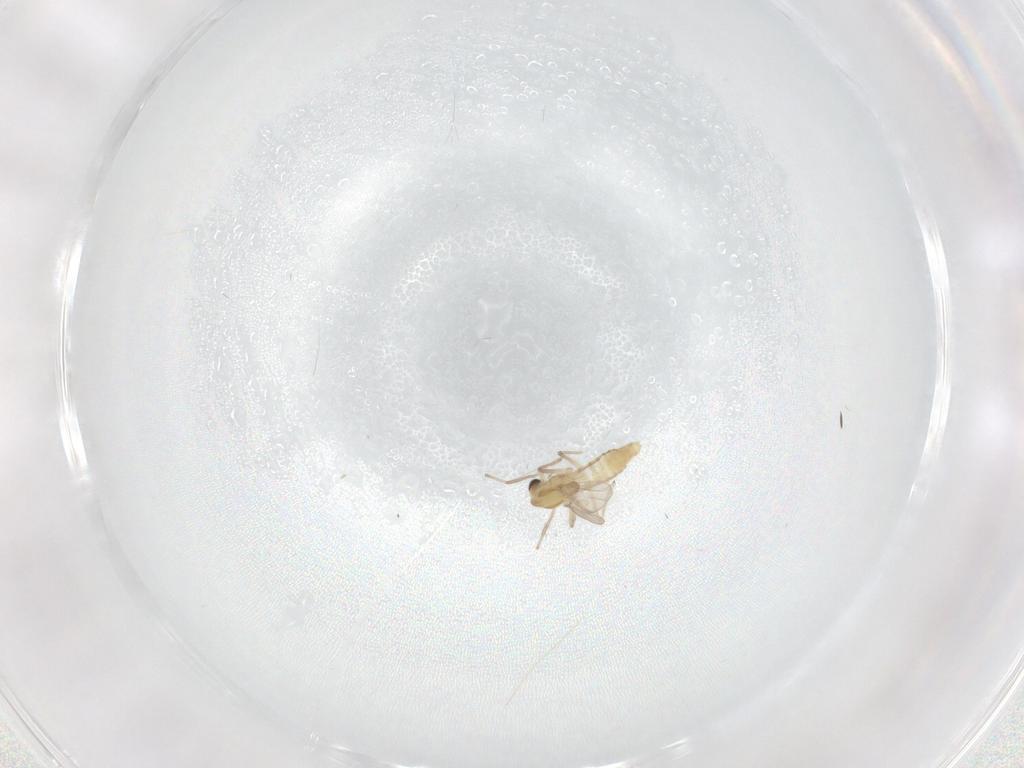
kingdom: Animalia
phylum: Arthropoda
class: Insecta
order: Diptera
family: Chironomidae
